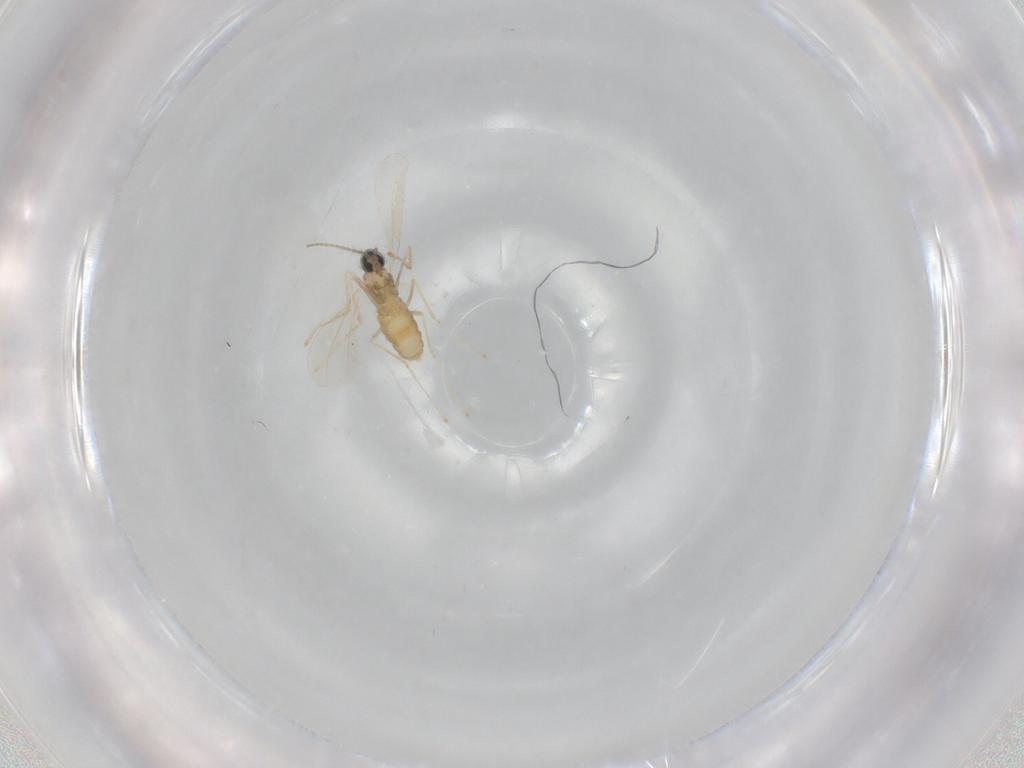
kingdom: Animalia
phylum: Arthropoda
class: Insecta
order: Diptera
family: Cecidomyiidae
